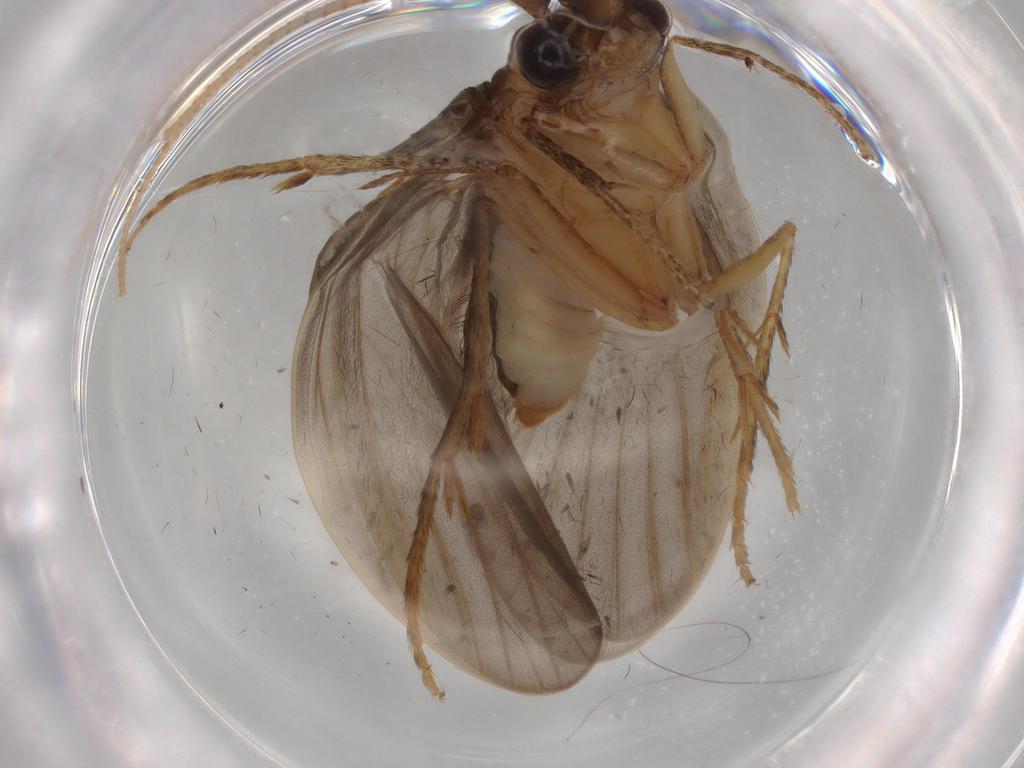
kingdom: Animalia
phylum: Arthropoda
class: Insecta
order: Trichoptera
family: Lepidostomatidae
